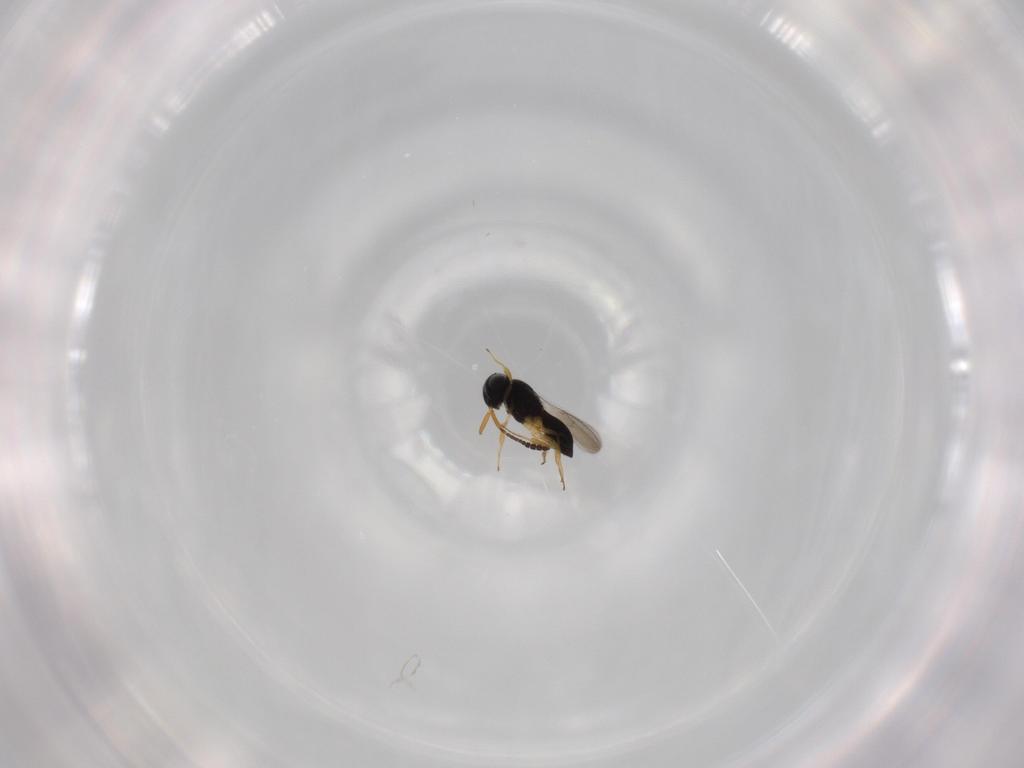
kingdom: Animalia
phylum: Arthropoda
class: Insecta
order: Hymenoptera
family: Scelionidae
